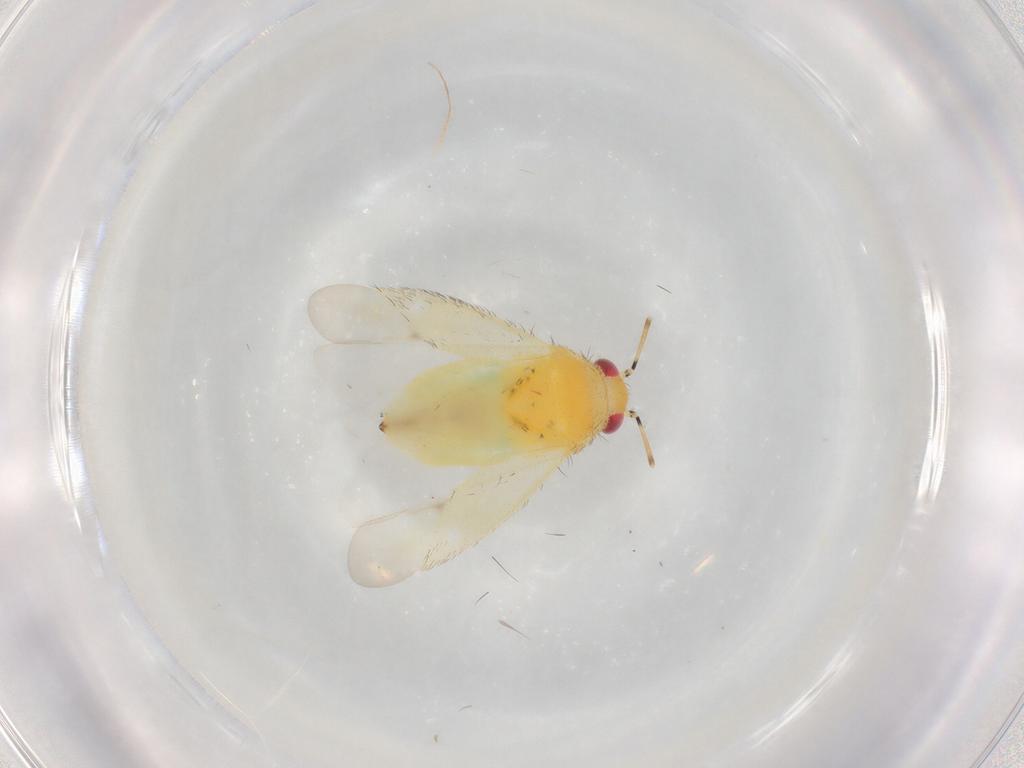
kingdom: Animalia
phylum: Arthropoda
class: Insecta
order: Hemiptera
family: Miridae
